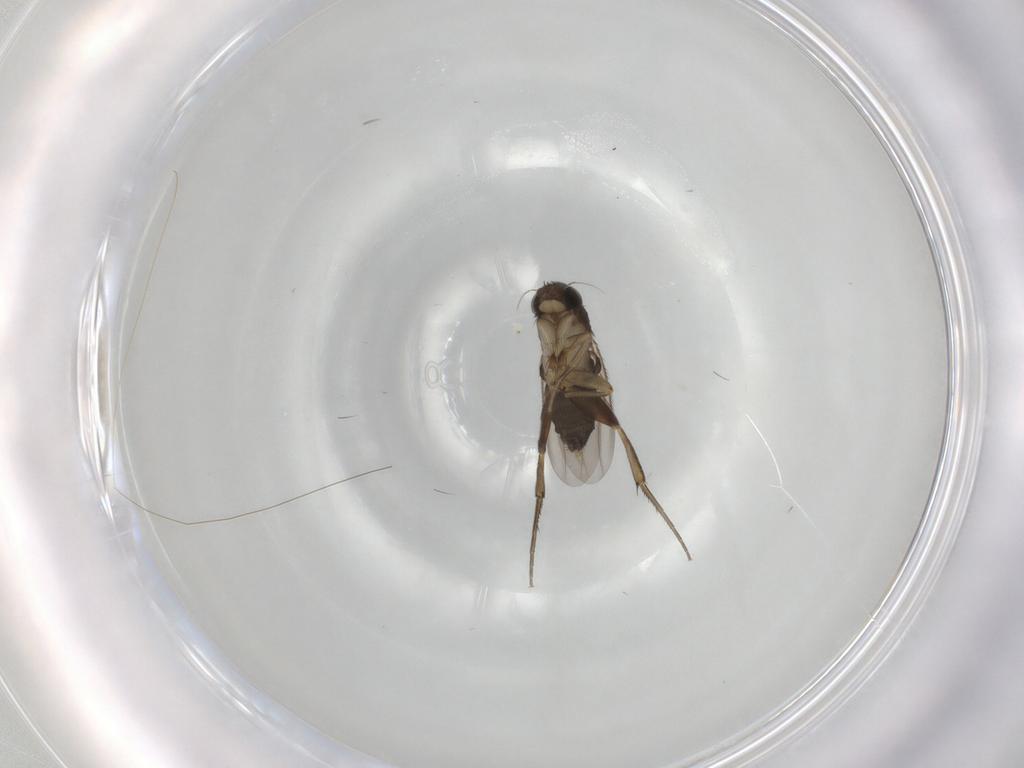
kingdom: Animalia
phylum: Arthropoda
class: Insecta
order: Diptera
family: Phoridae
